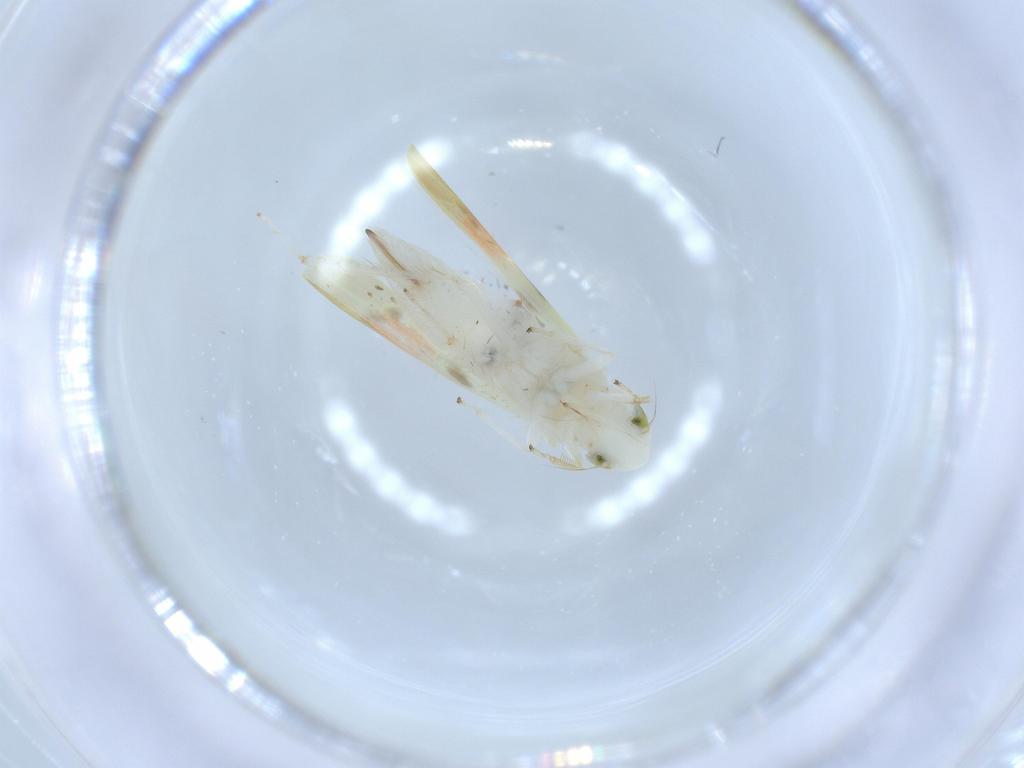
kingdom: Animalia
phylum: Arthropoda
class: Insecta
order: Hemiptera
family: Cicadellidae
